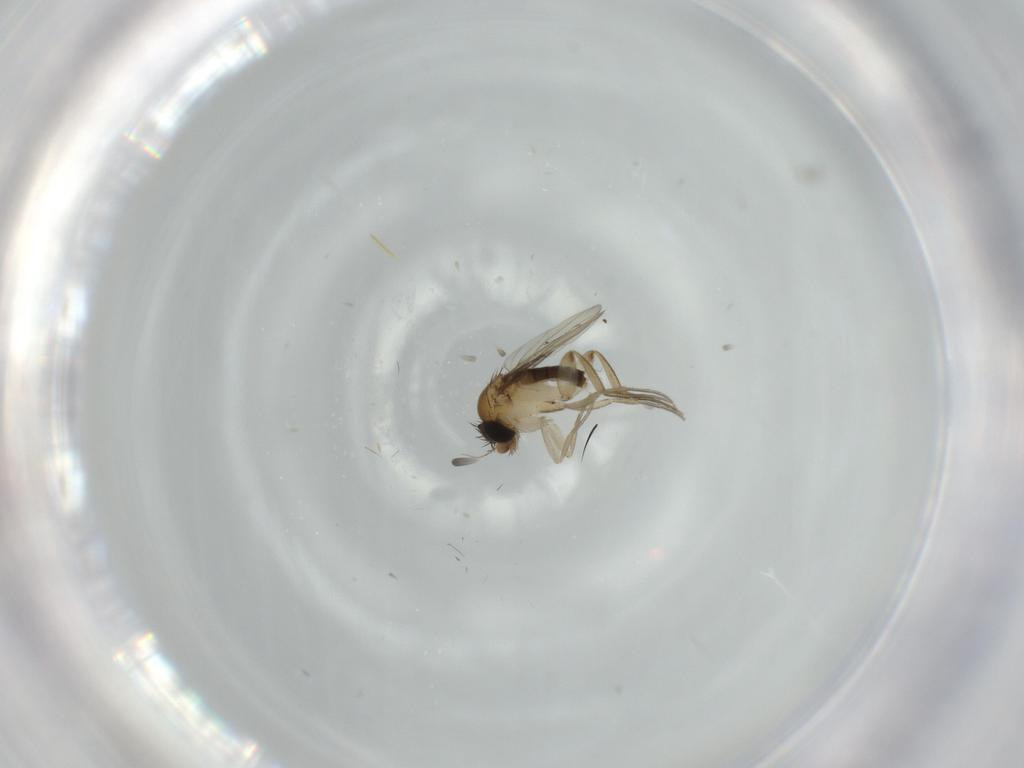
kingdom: Animalia
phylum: Arthropoda
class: Insecta
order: Diptera
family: Phoridae
